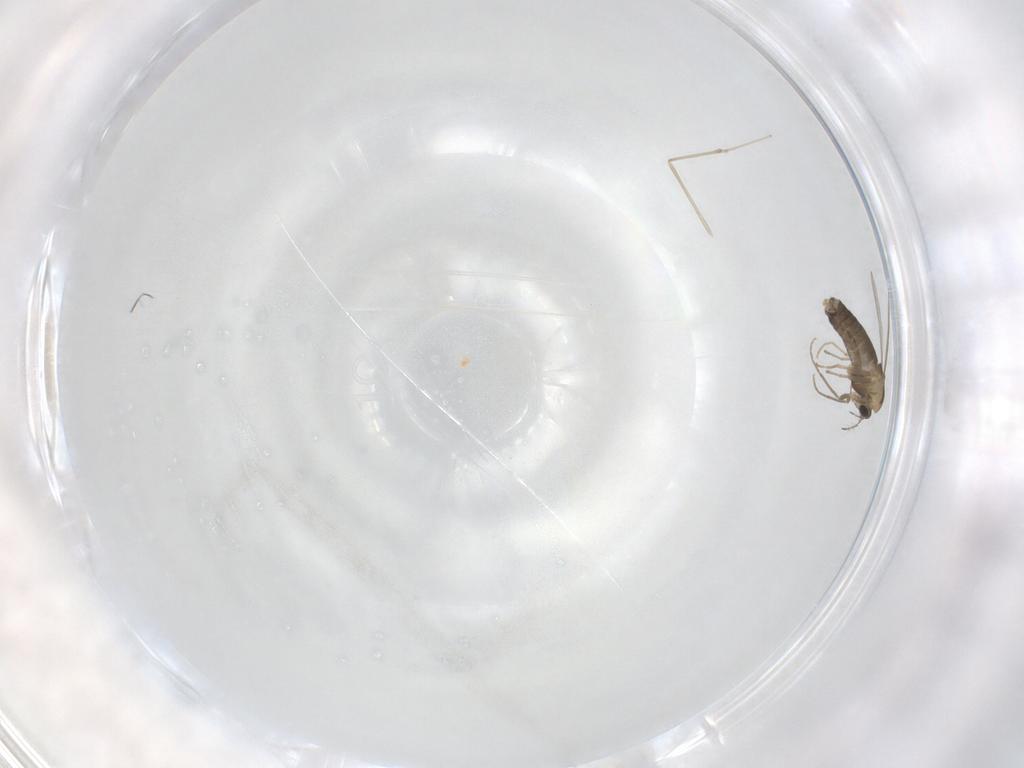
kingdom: Animalia
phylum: Arthropoda
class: Insecta
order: Diptera
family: Chironomidae
